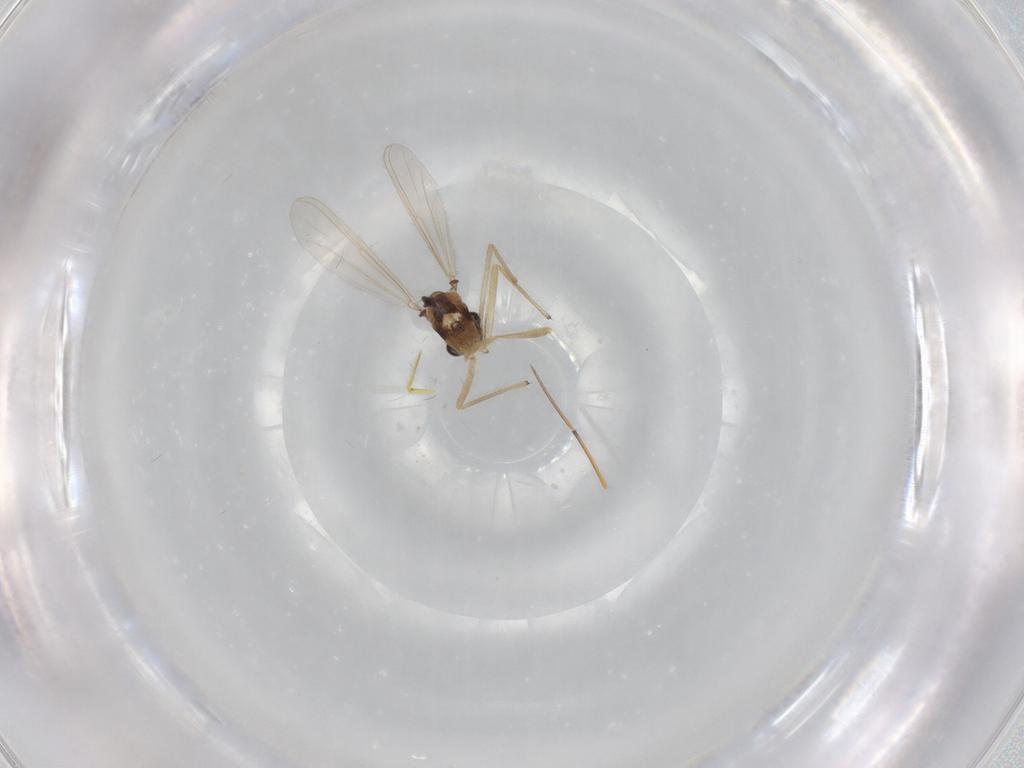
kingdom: Animalia
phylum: Arthropoda
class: Insecta
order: Diptera
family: Chironomidae
